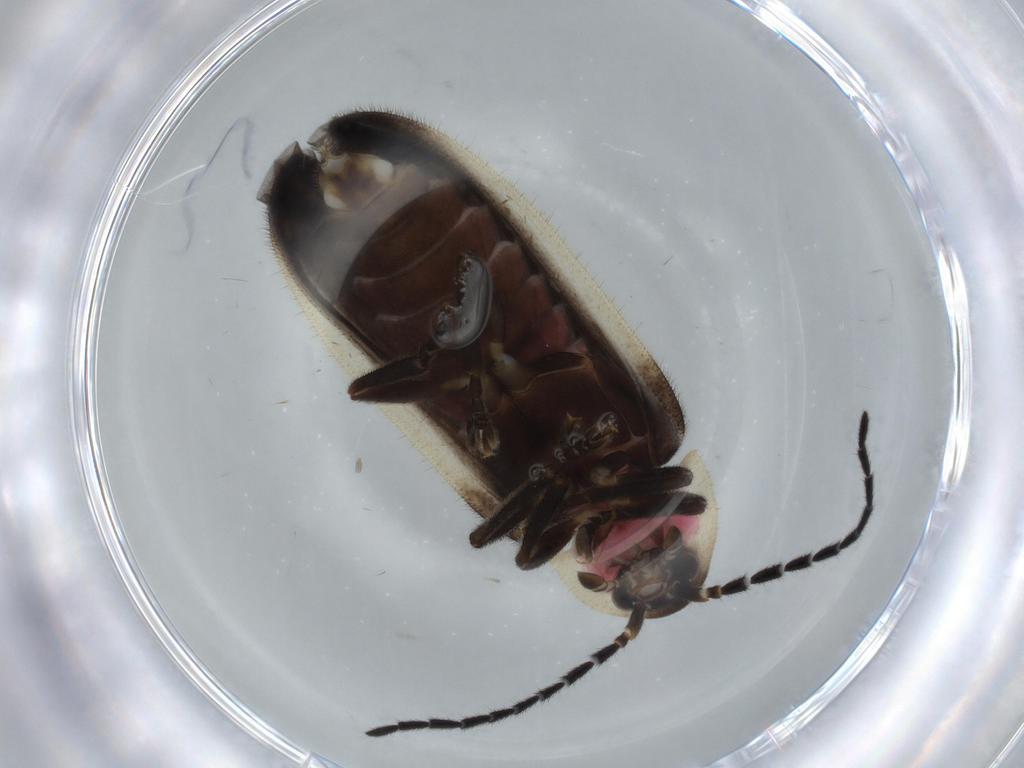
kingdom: Animalia
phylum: Arthropoda
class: Insecta
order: Coleoptera
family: Lampyridae
